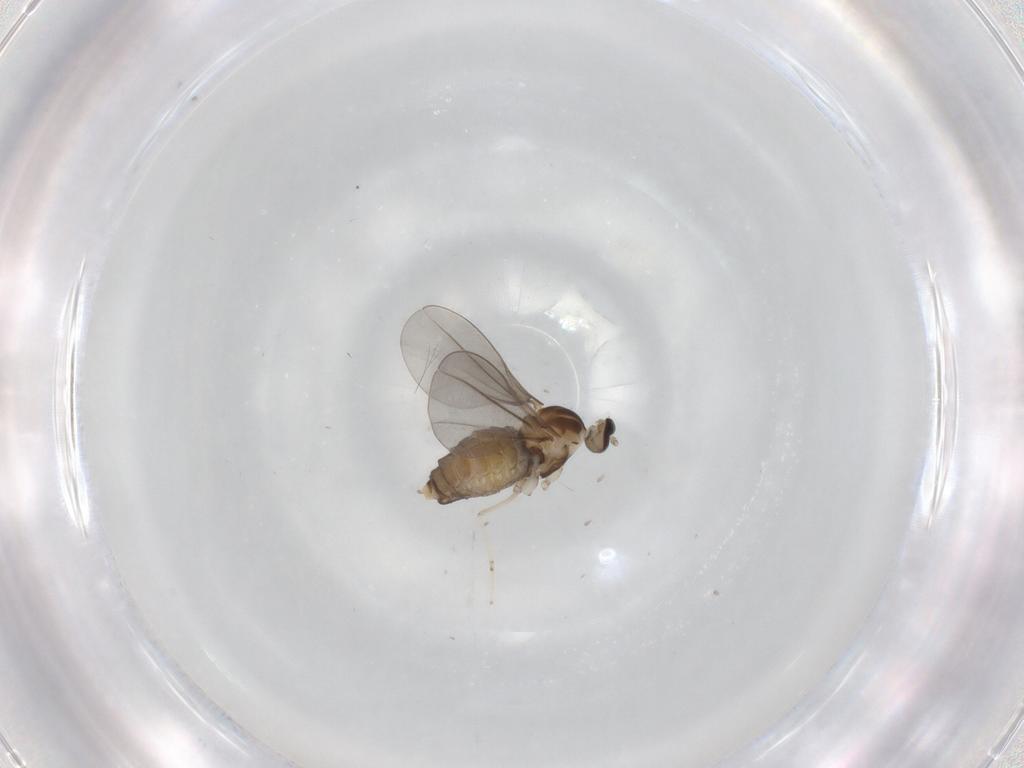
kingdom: Animalia
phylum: Arthropoda
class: Insecta
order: Diptera
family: Cecidomyiidae
